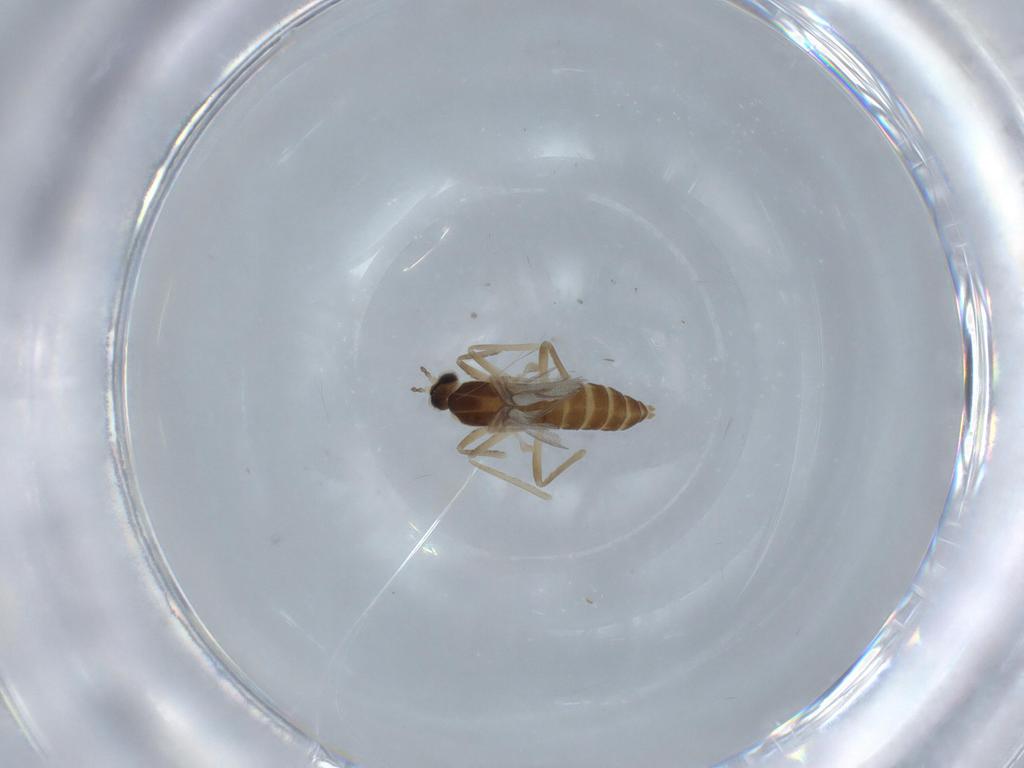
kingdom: Animalia
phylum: Arthropoda
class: Insecta
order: Diptera
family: Cecidomyiidae
